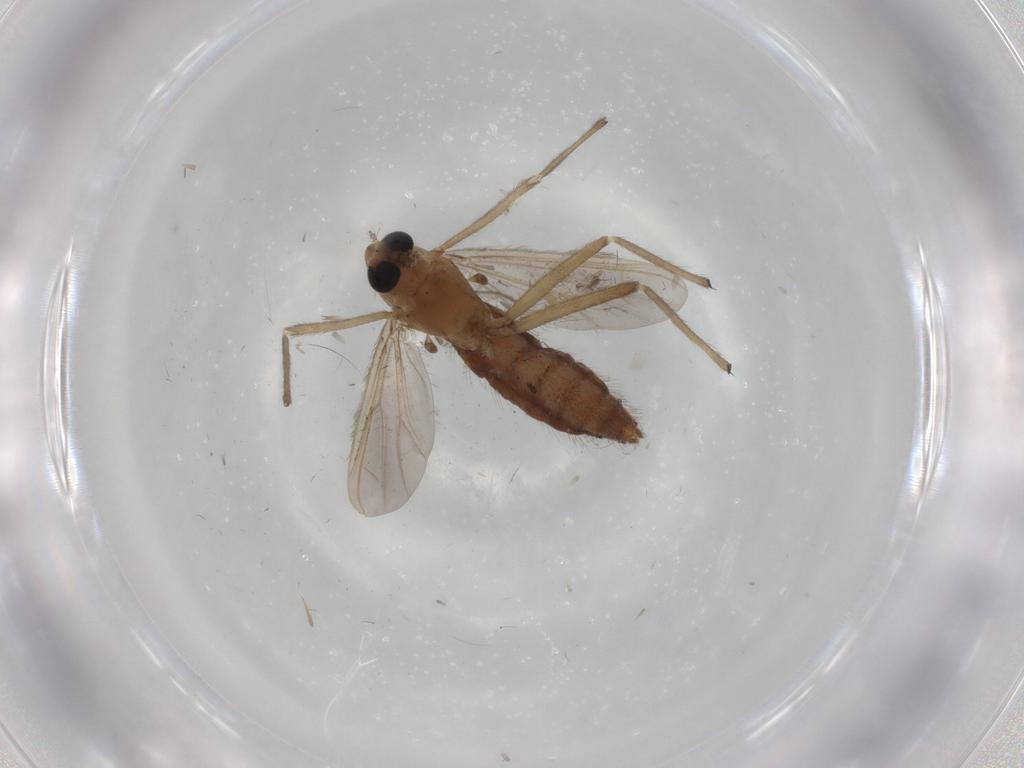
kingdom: Animalia
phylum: Arthropoda
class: Insecta
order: Diptera
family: Chironomidae
